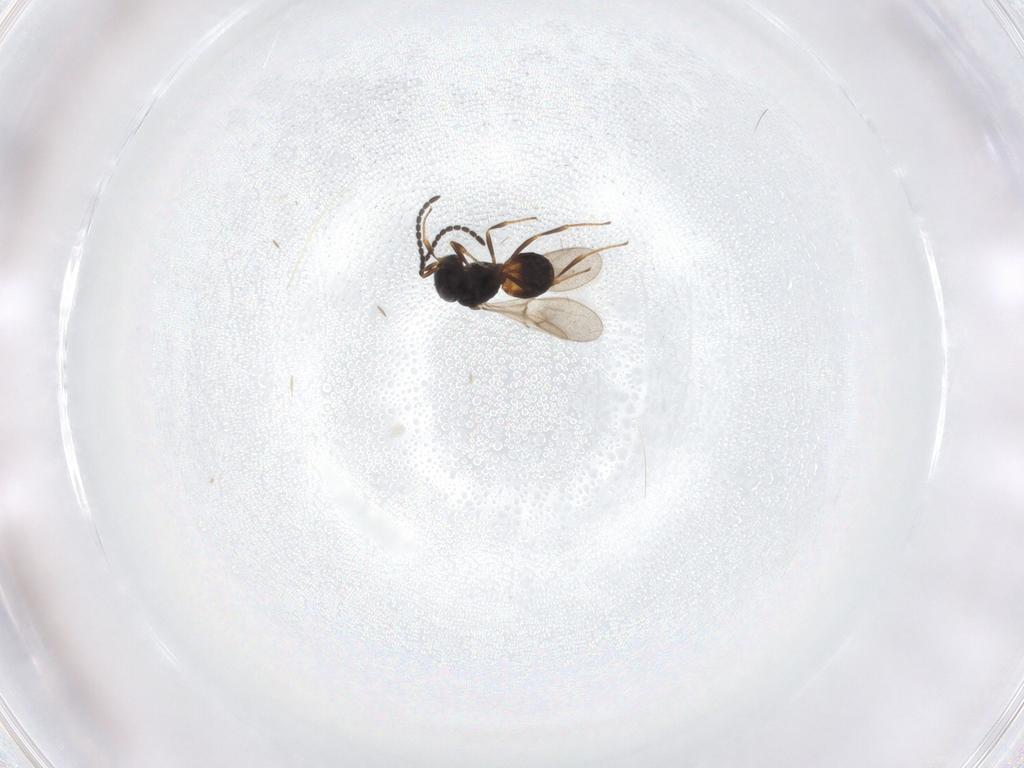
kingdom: Animalia
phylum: Arthropoda
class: Insecta
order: Hymenoptera
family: Scelionidae
